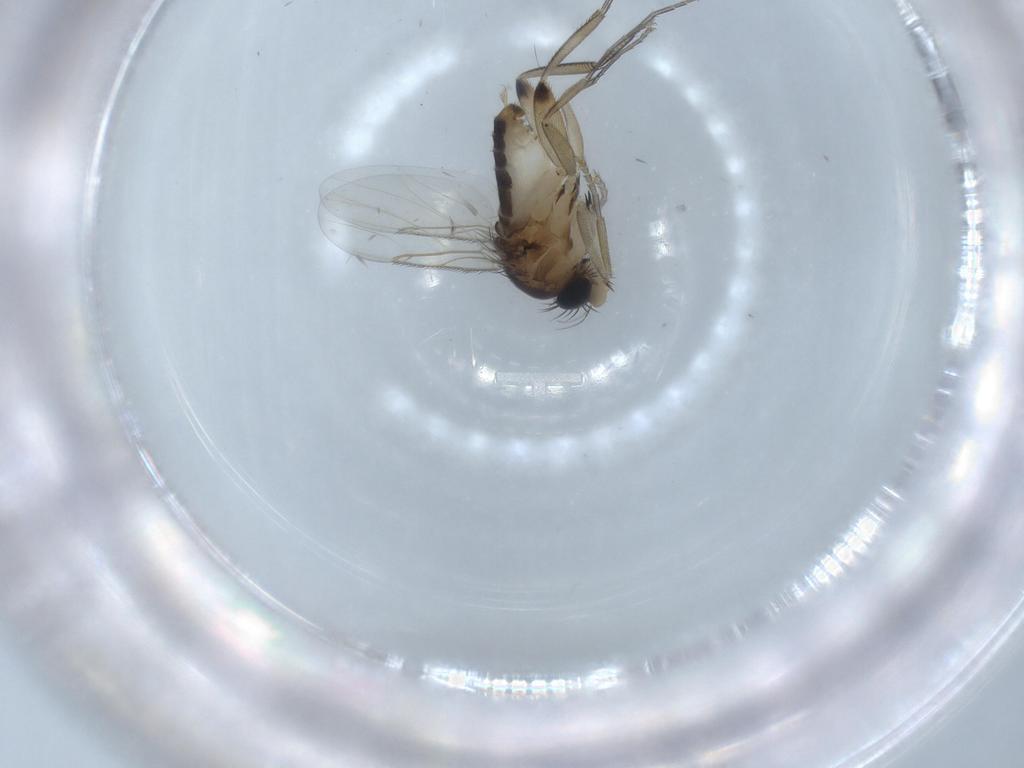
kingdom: Animalia
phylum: Arthropoda
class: Insecta
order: Diptera
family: Phoridae
